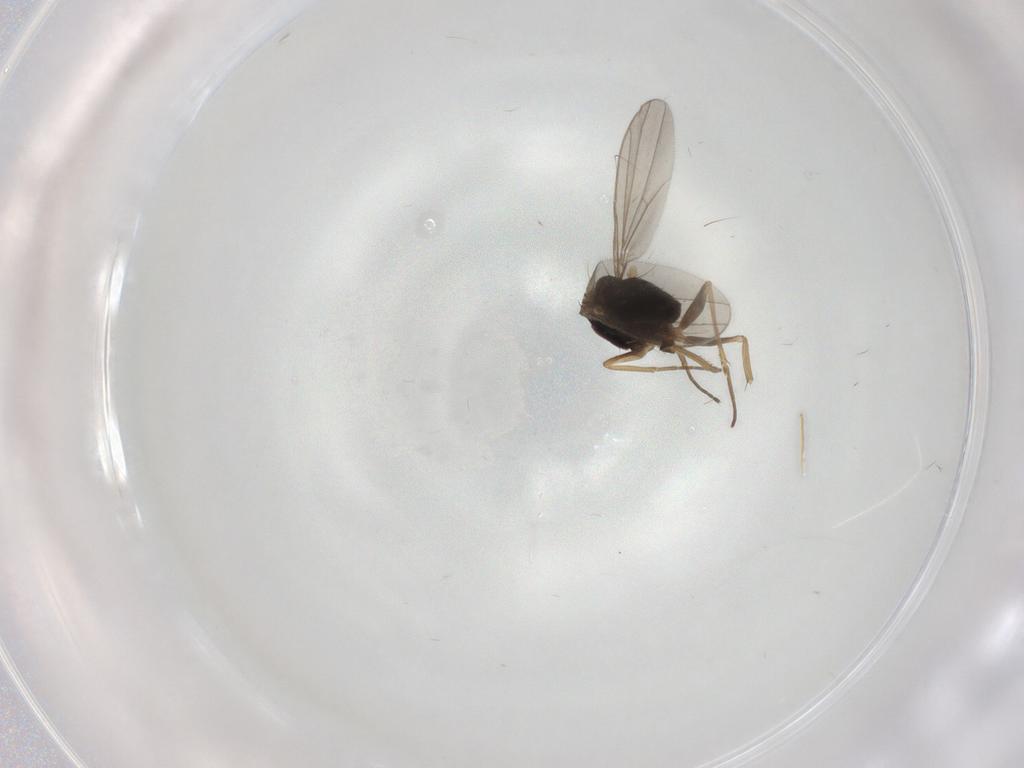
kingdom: Animalia
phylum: Arthropoda
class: Insecta
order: Diptera
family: Dolichopodidae
